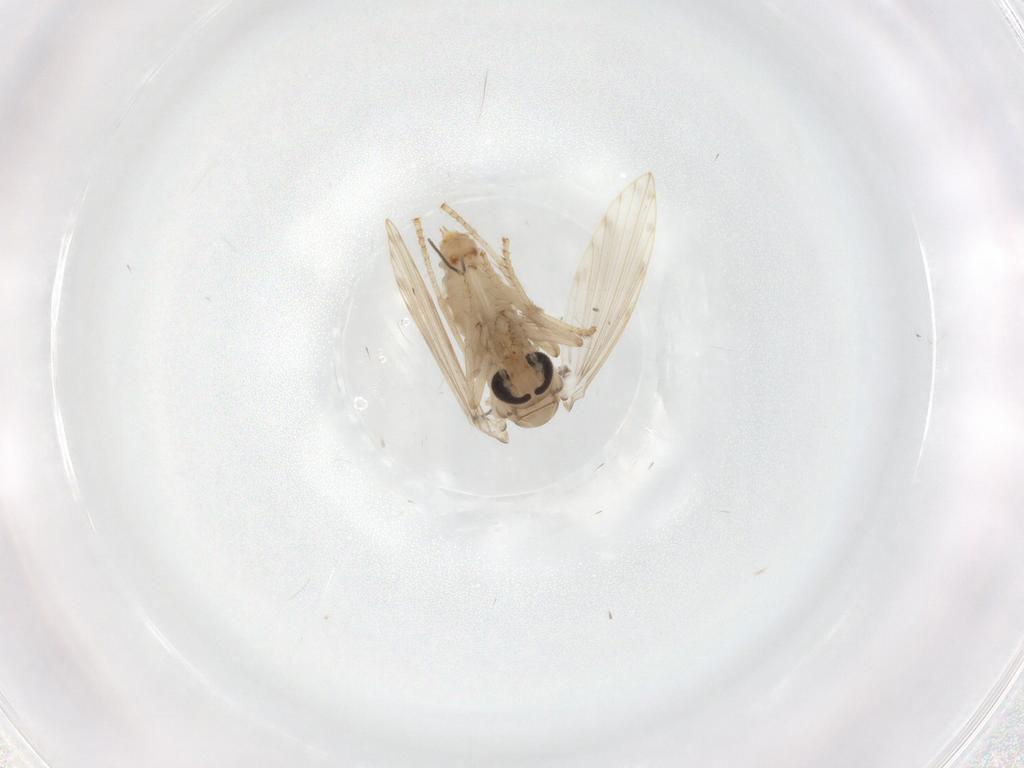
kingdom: Animalia
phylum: Arthropoda
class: Insecta
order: Diptera
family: Psychodidae
